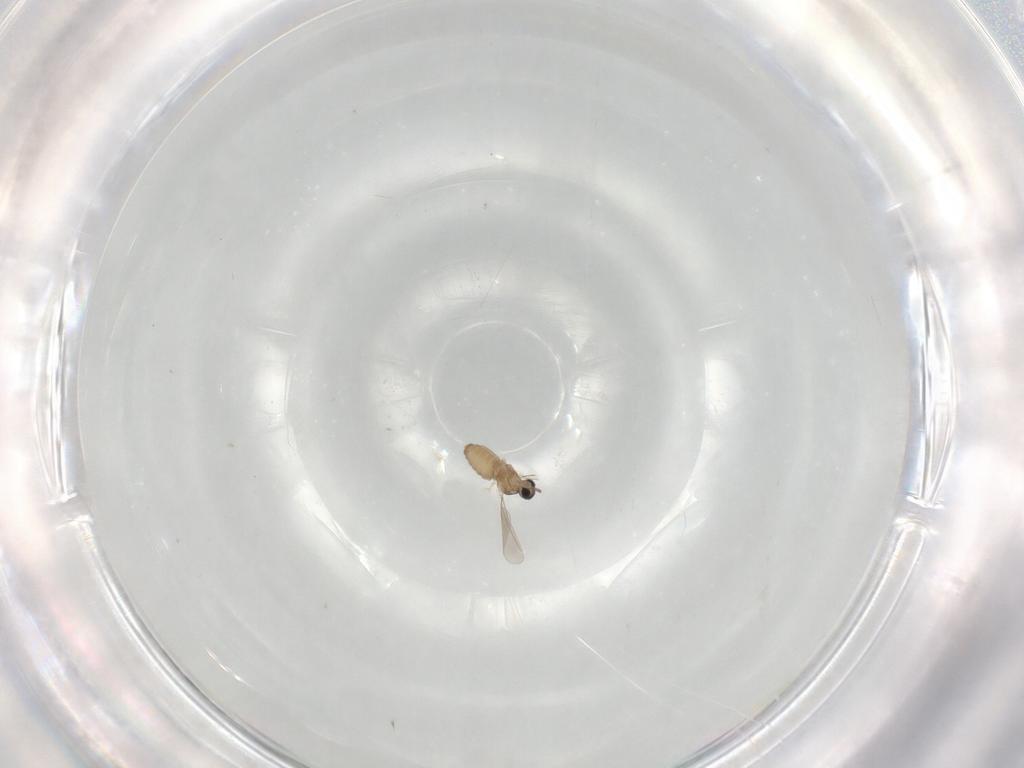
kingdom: Animalia
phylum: Arthropoda
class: Insecta
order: Diptera
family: Cecidomyiidae
